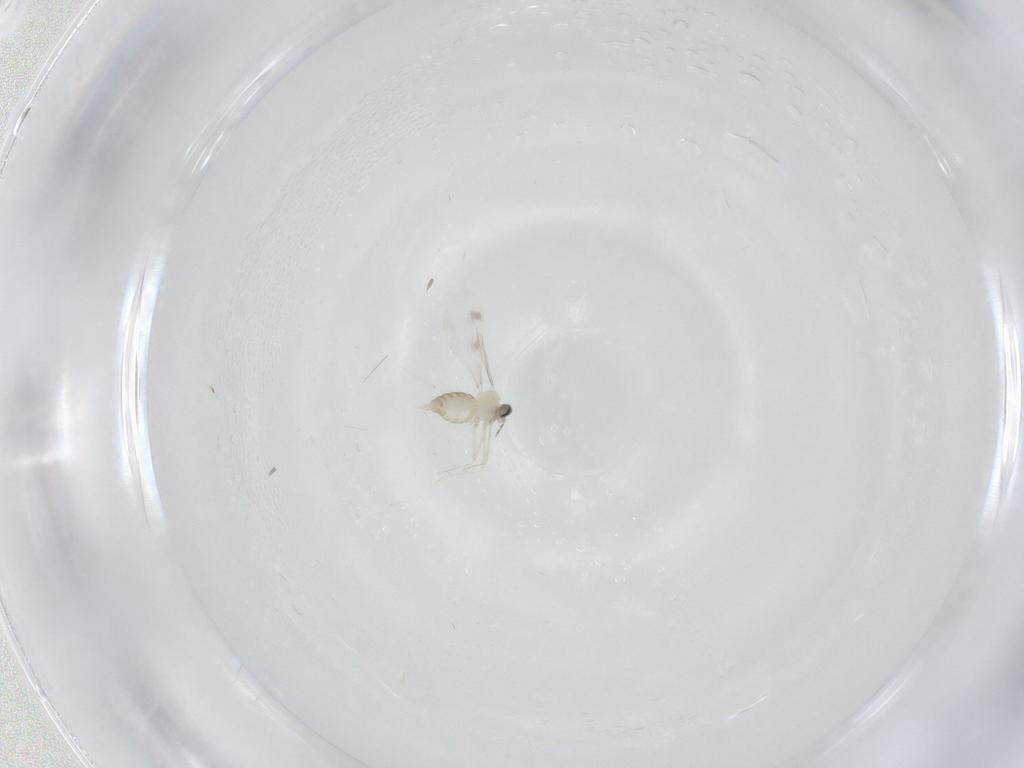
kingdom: Animalia
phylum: Arthropoda
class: Insecta
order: Diptera
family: Cecidomyiidae
